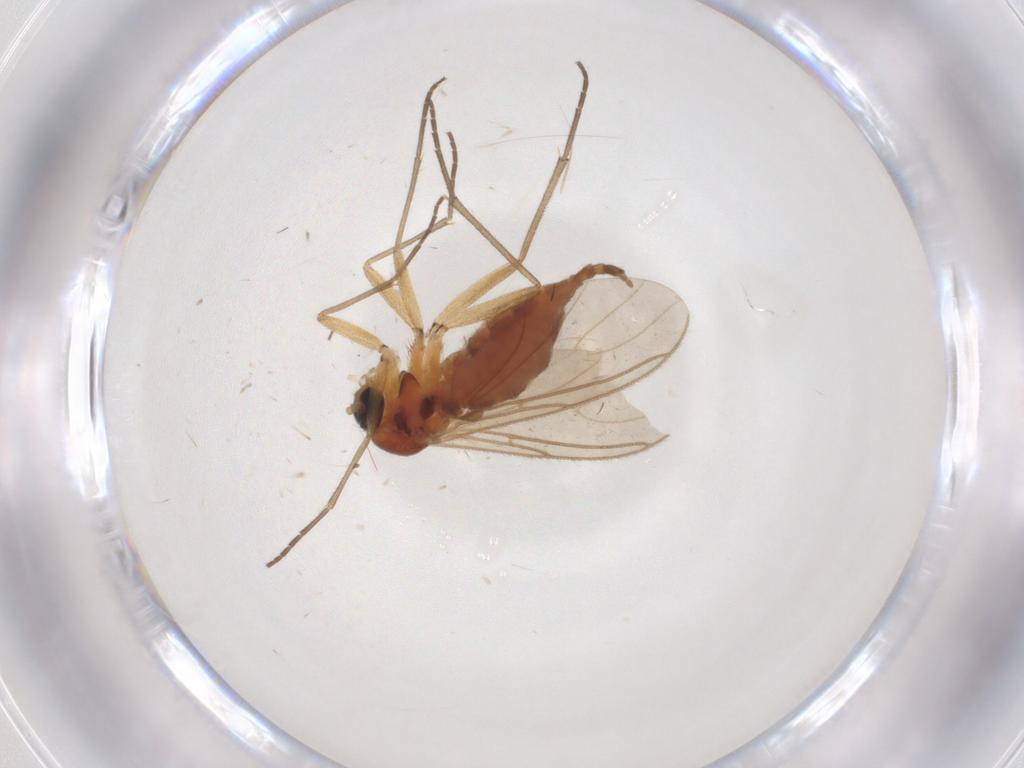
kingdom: Animalia
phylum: Arthropoda
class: Insecta
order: Diptera
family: Sciaridae
